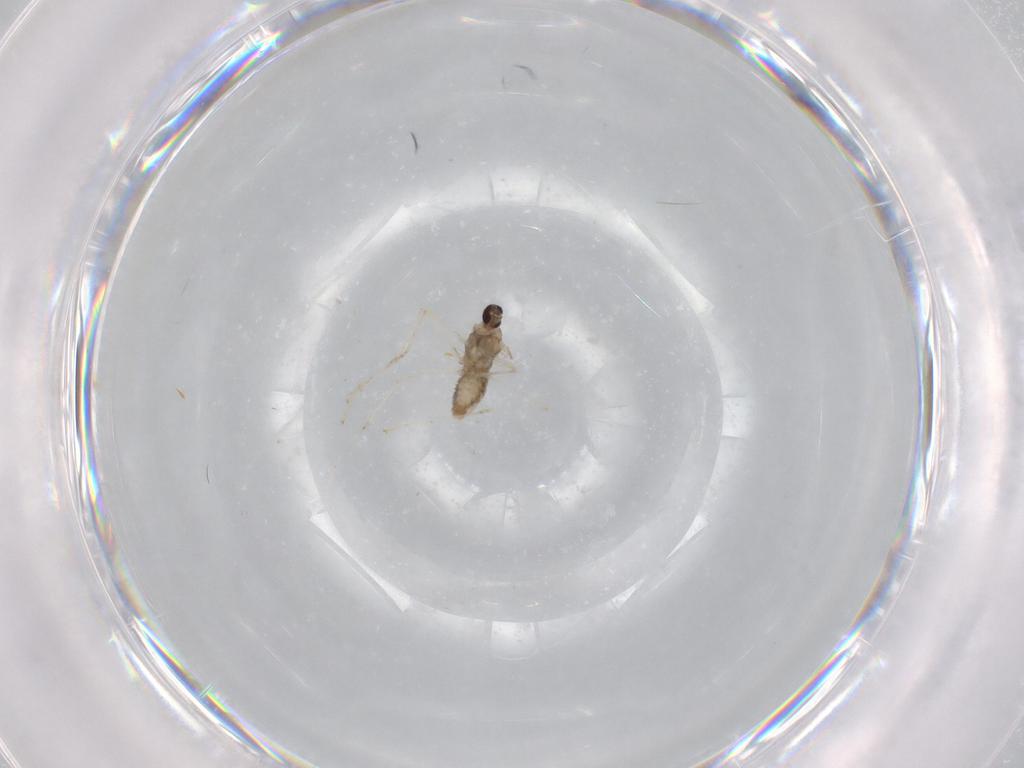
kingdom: Animalia
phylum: Arthropoda
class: Insecta
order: Diptera
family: Cecidomyiidae
